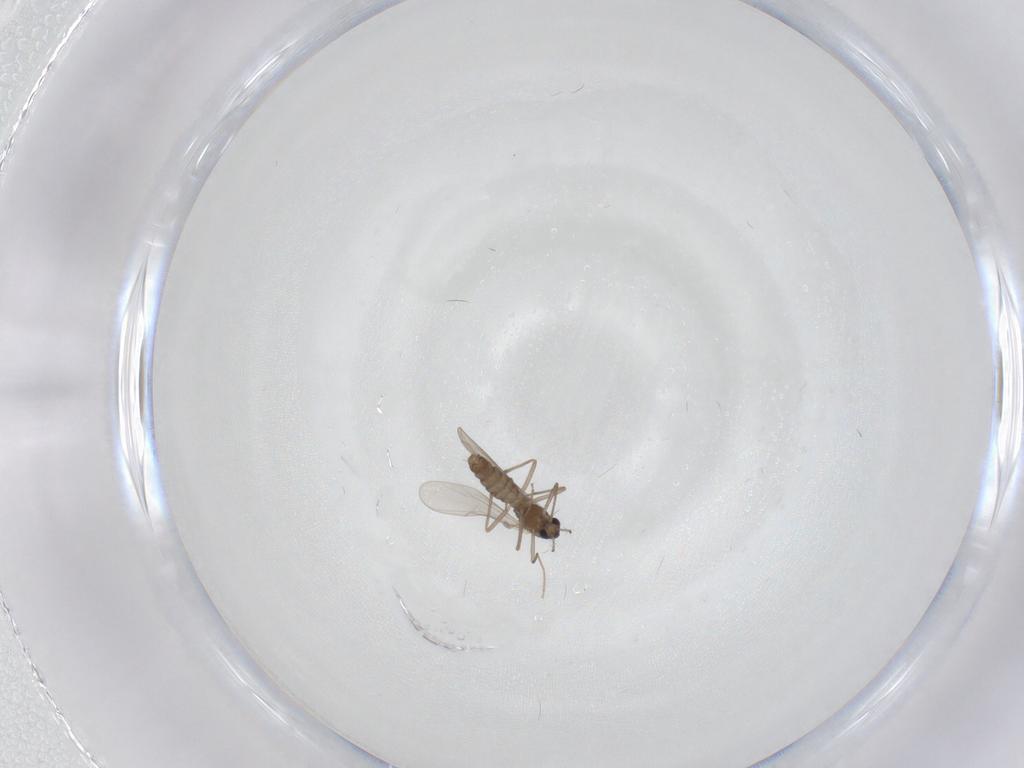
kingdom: Animalia
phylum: Arthropoda
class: Insecta
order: Diptera
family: Chironomidae
